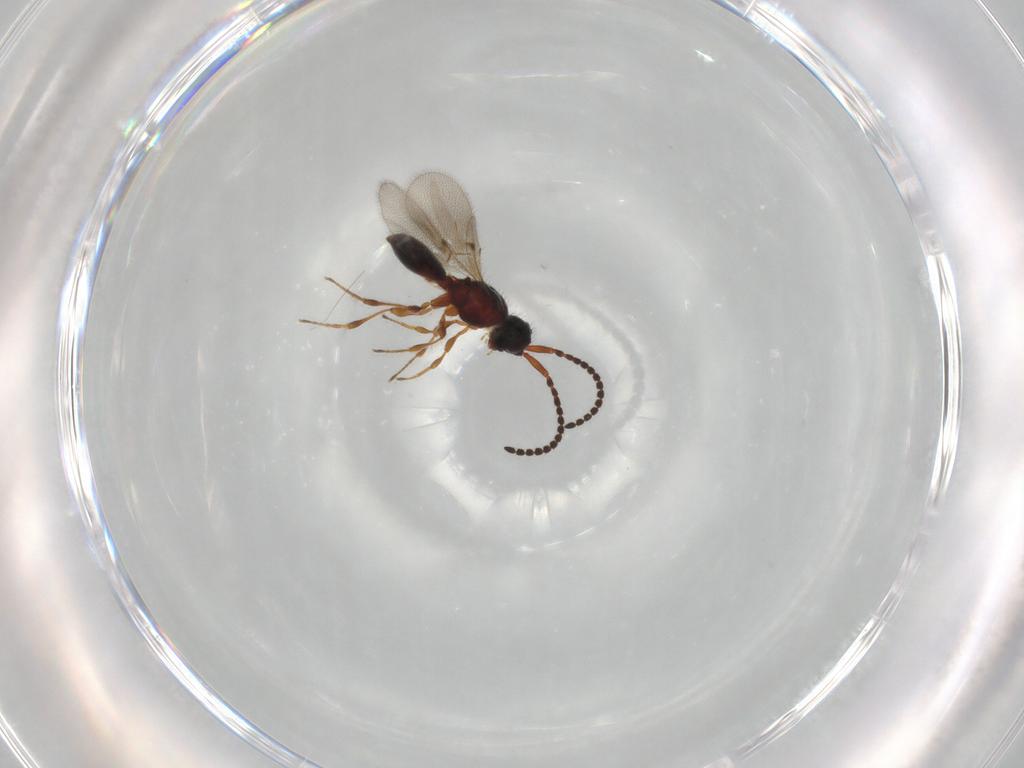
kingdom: Animalia
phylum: Arthropoda
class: Insecta
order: Hymenoptera
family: Diapriidae
